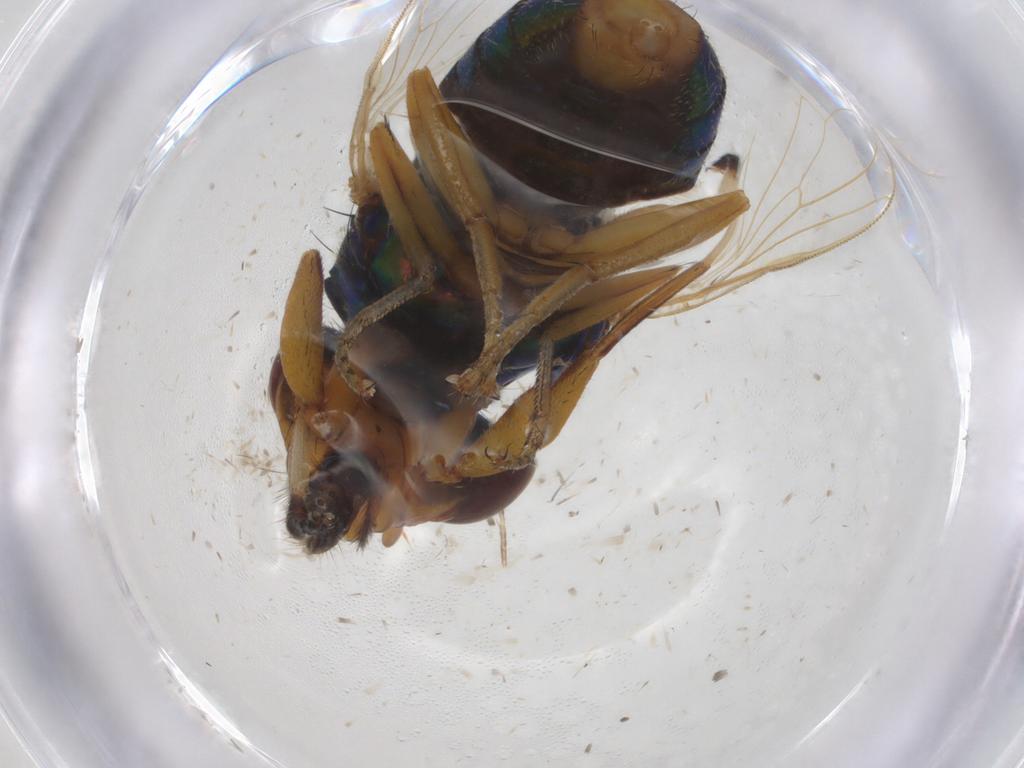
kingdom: Animalia
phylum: Arthropoda
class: Insecta
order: Diptera
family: Ulidiidae
